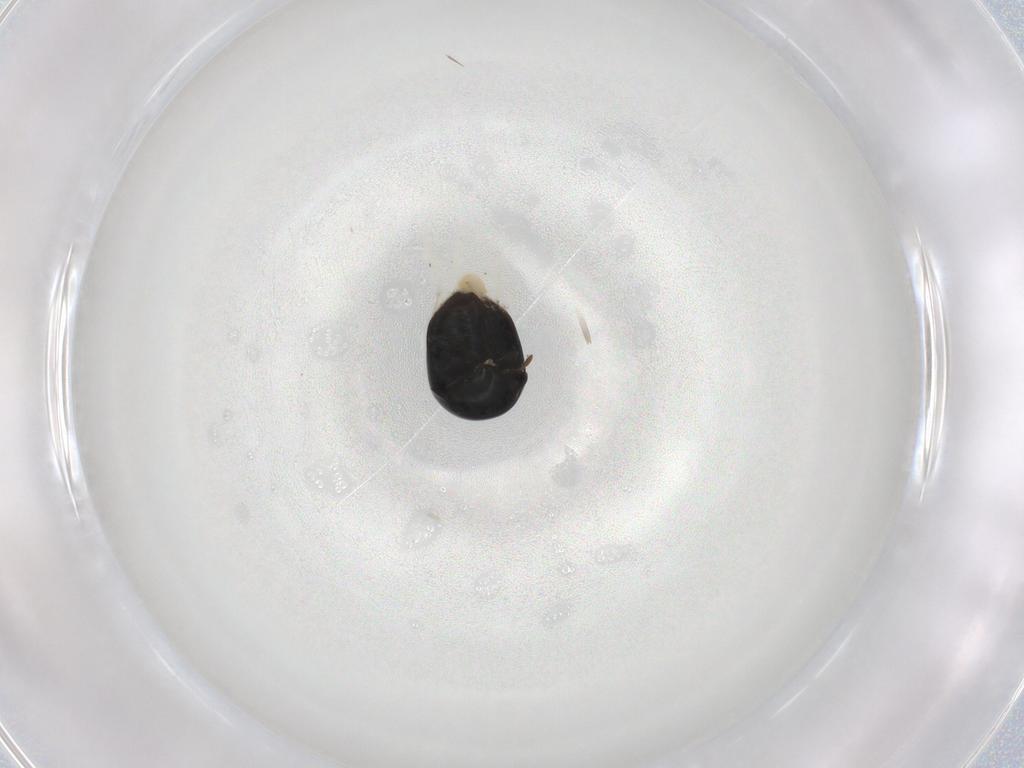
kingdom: Animalia
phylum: Arthropoda
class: Insecta
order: Coleoptera
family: Cybocephalidae
